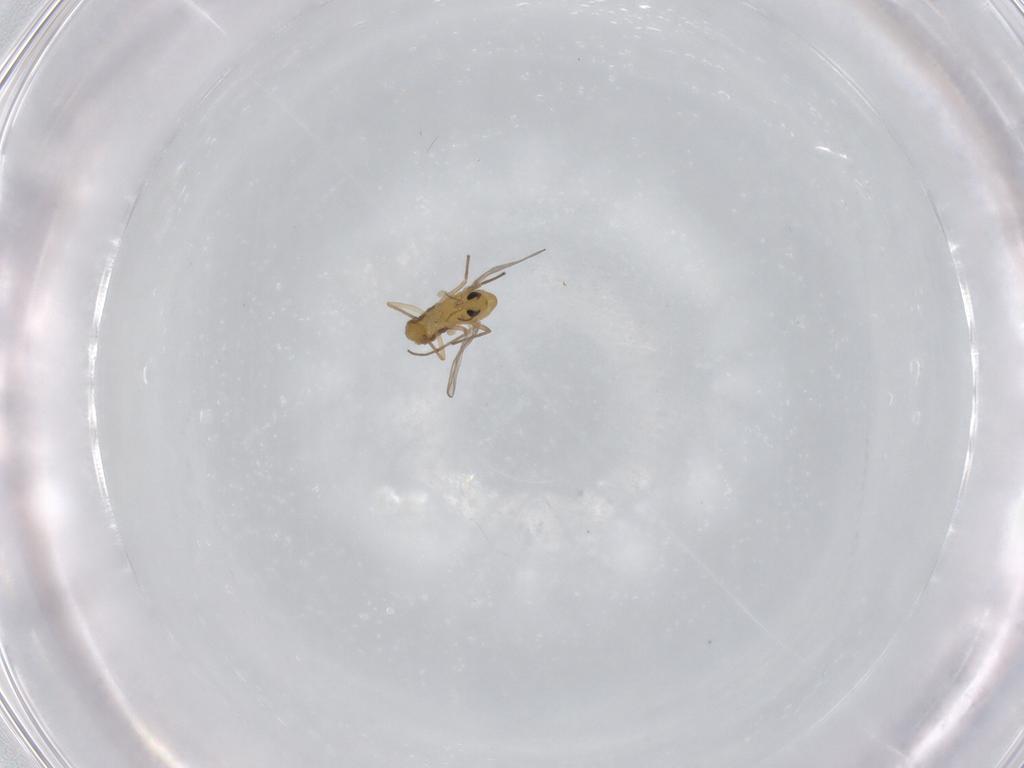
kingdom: Animalia
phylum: Arthropoda
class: Insecta
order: Diptera
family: Chironomidae
